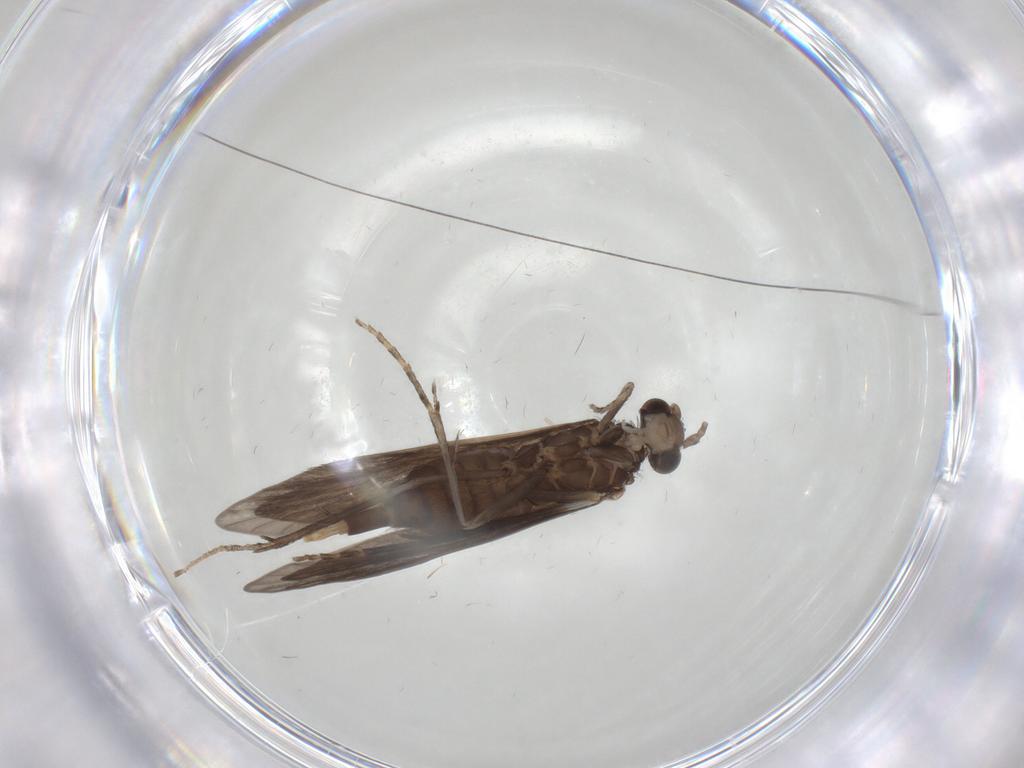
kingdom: Animalia
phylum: Arthropoda
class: Insecta
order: Trichoptera
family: Xiphocentronidae
